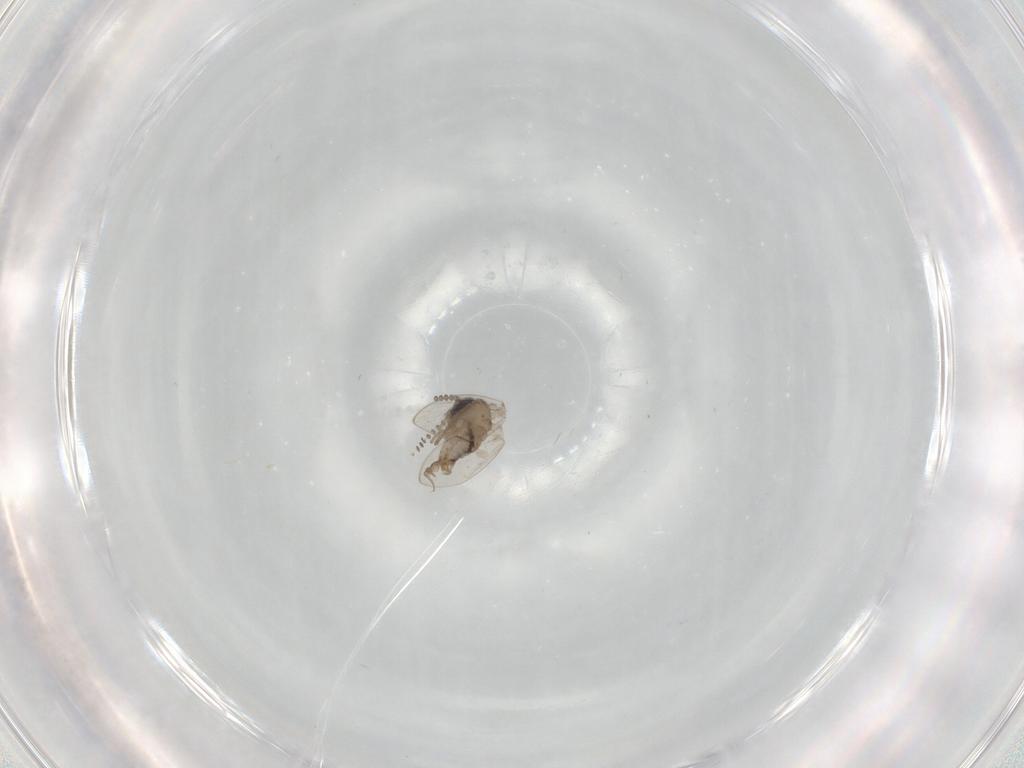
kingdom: Animalia
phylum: Arthropoda
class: Insecta
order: Diptera
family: Psychodidae
